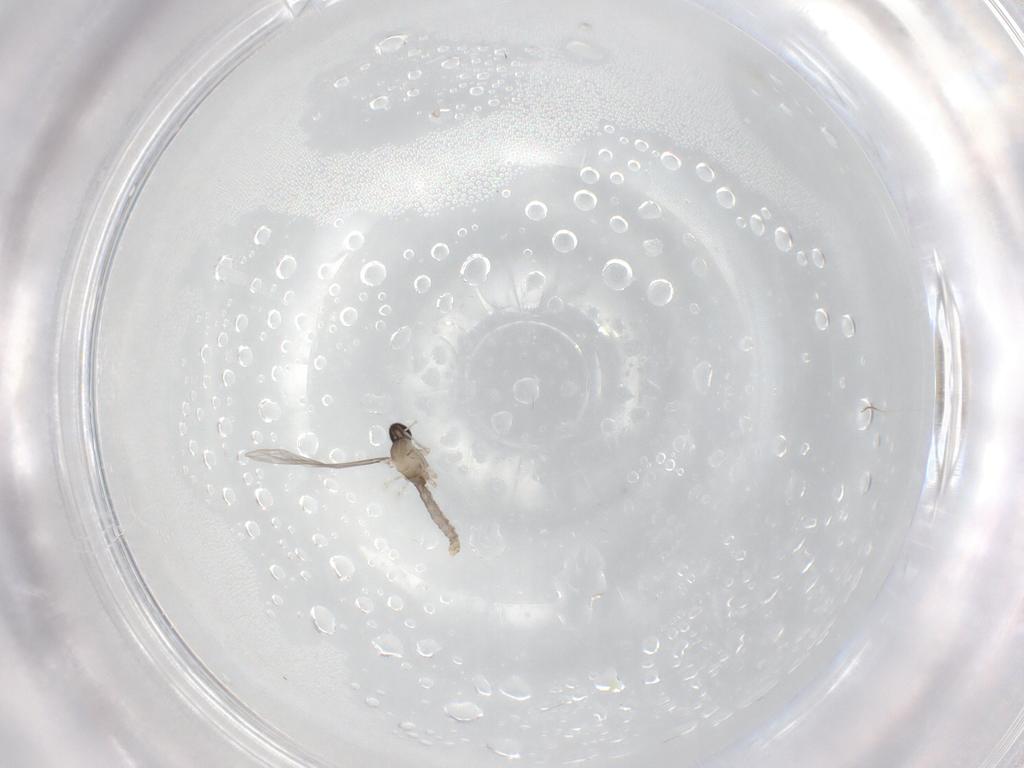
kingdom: Animalia
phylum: Arthropoda
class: Insecta
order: Diptera
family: Cecidomyiidae
